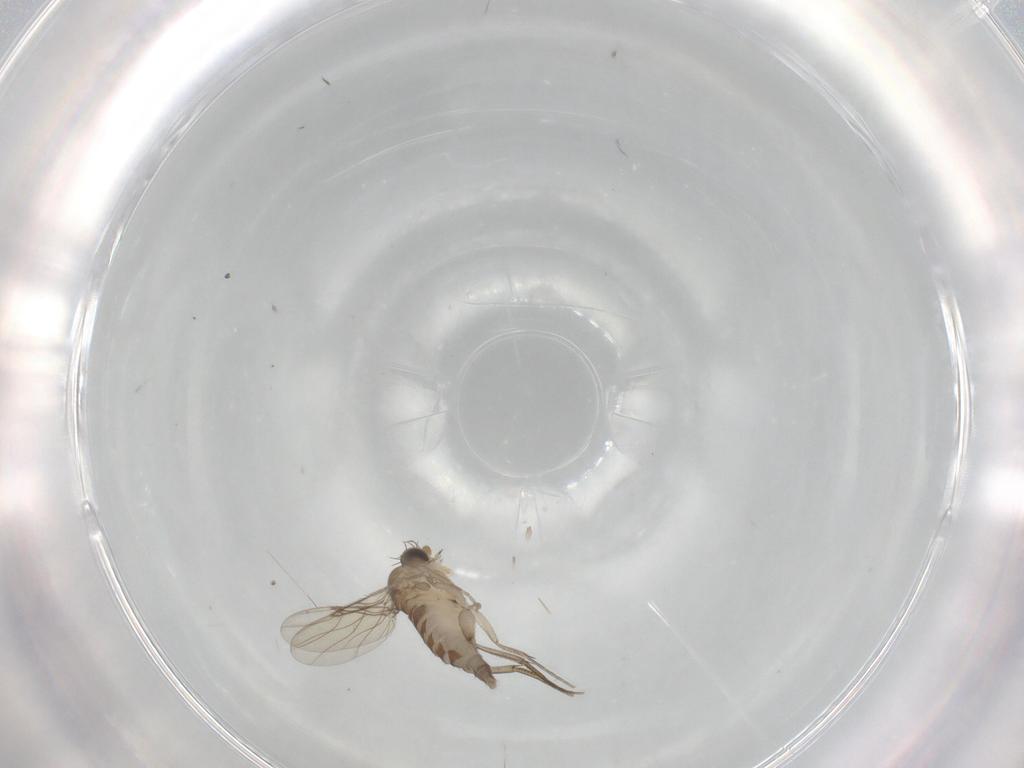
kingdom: Animalia
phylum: Arthropoda
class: Insecta
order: Diptera
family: Phoridae
